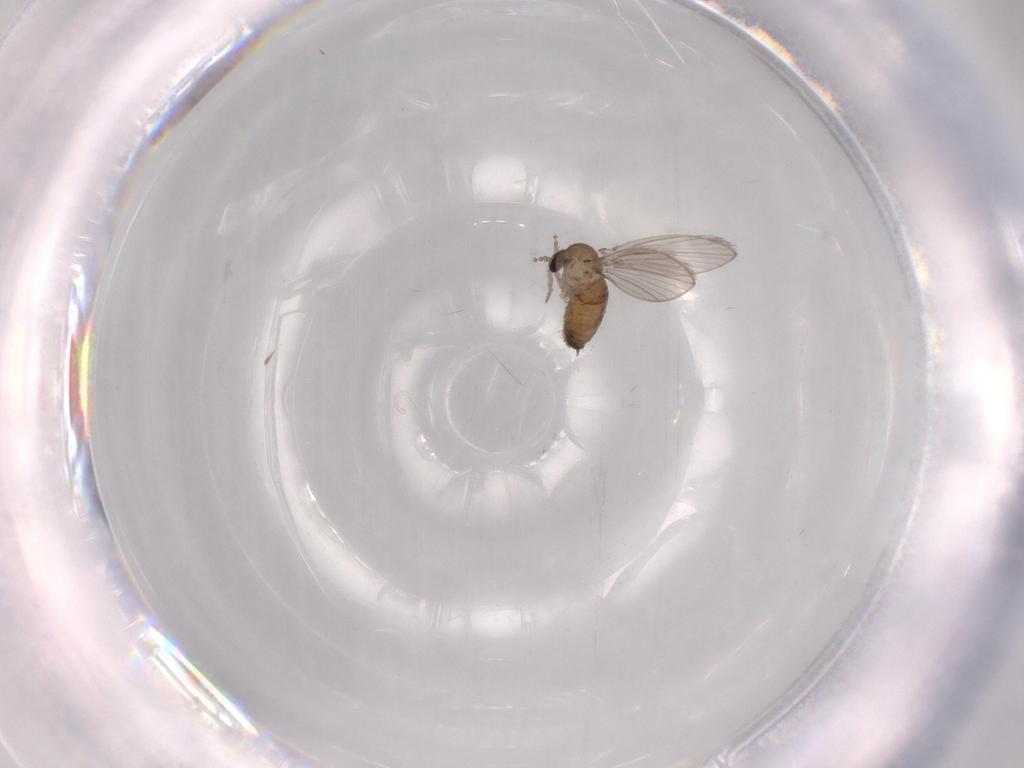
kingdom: Animalia
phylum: Arthropoda
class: Insecta
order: Diptera
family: Psychodidae
